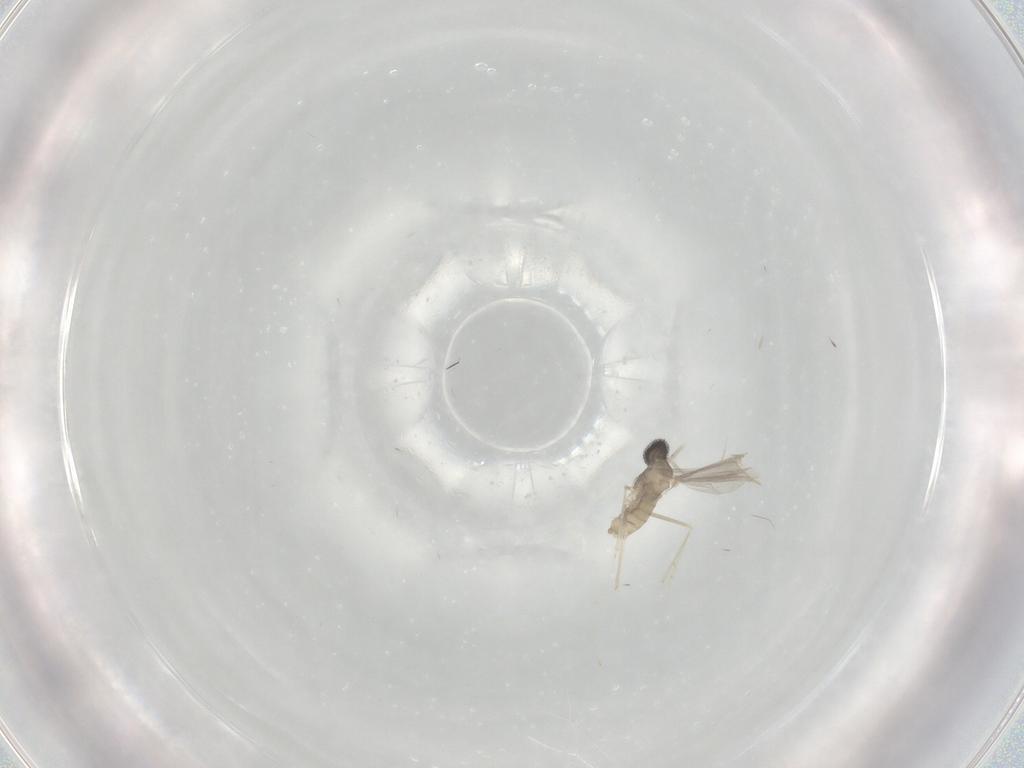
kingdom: Animalia
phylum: Arthropoda
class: Insecta
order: Diptera
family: Cecidomyiidae
